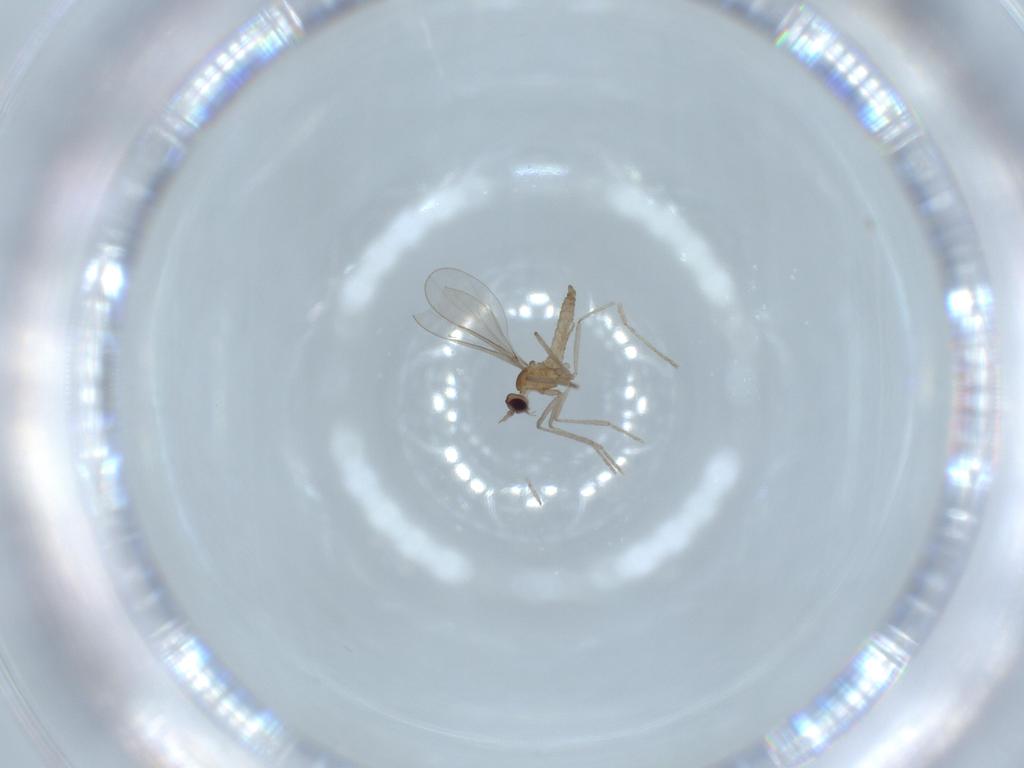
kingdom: Animalia
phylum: Arthropoda
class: Insecta
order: Diptera
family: Cecidomyiidae
